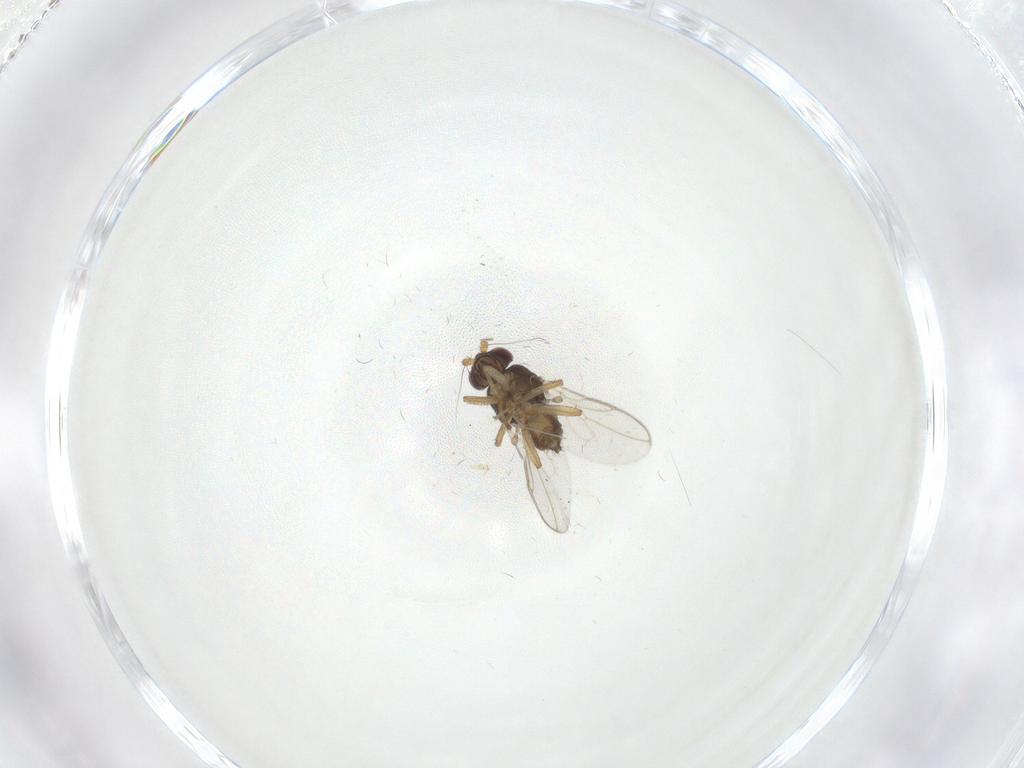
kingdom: Animalia
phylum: Arthropoda
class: Insecta
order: Diptera
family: Sphaeroceridae
